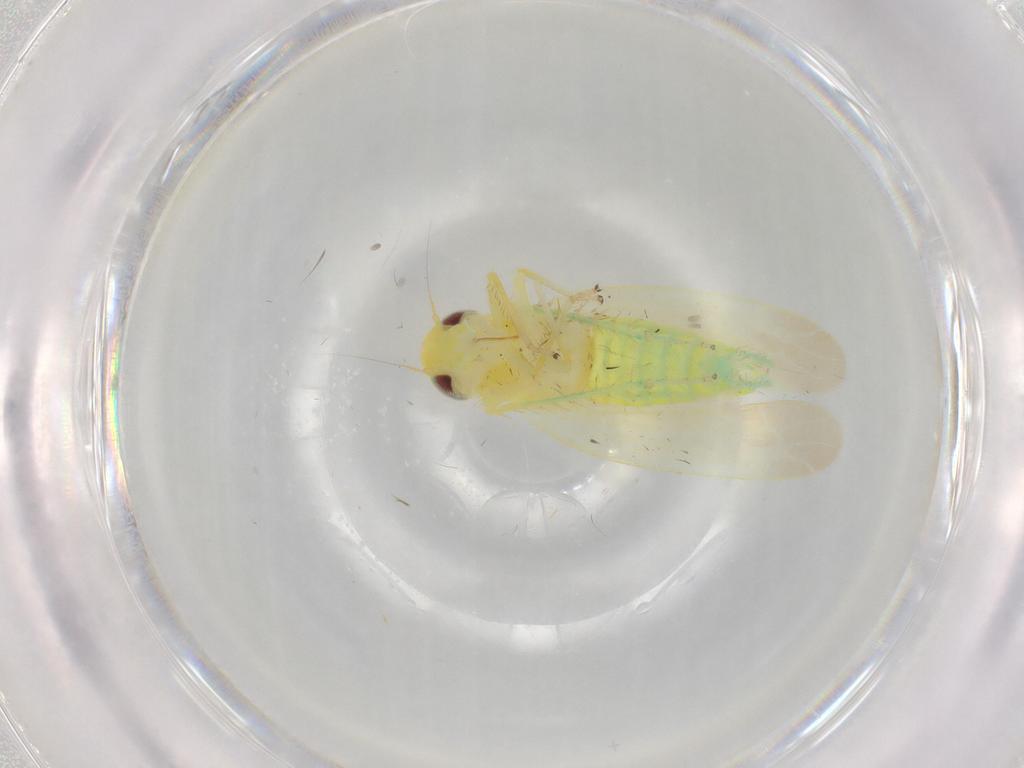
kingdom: Animalia
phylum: Arthropoda
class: Insecta
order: Hemiptera
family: Cicadellidae
